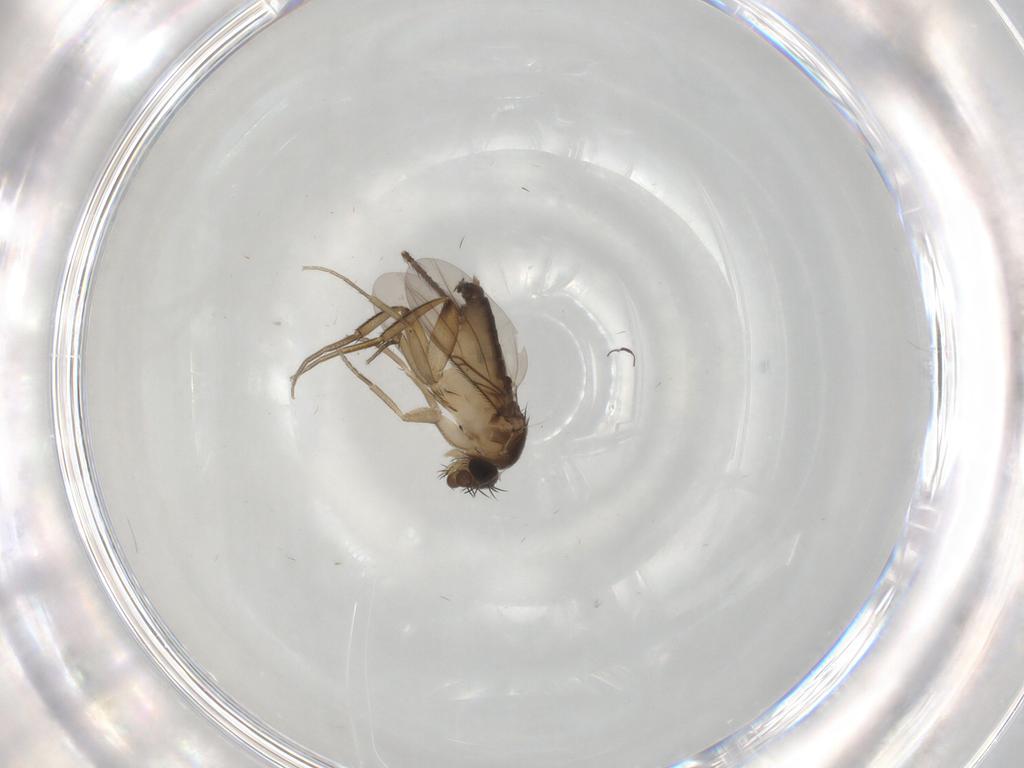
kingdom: Animalia
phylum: Arthropoda
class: Insecta
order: Diptera
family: Phoridae
